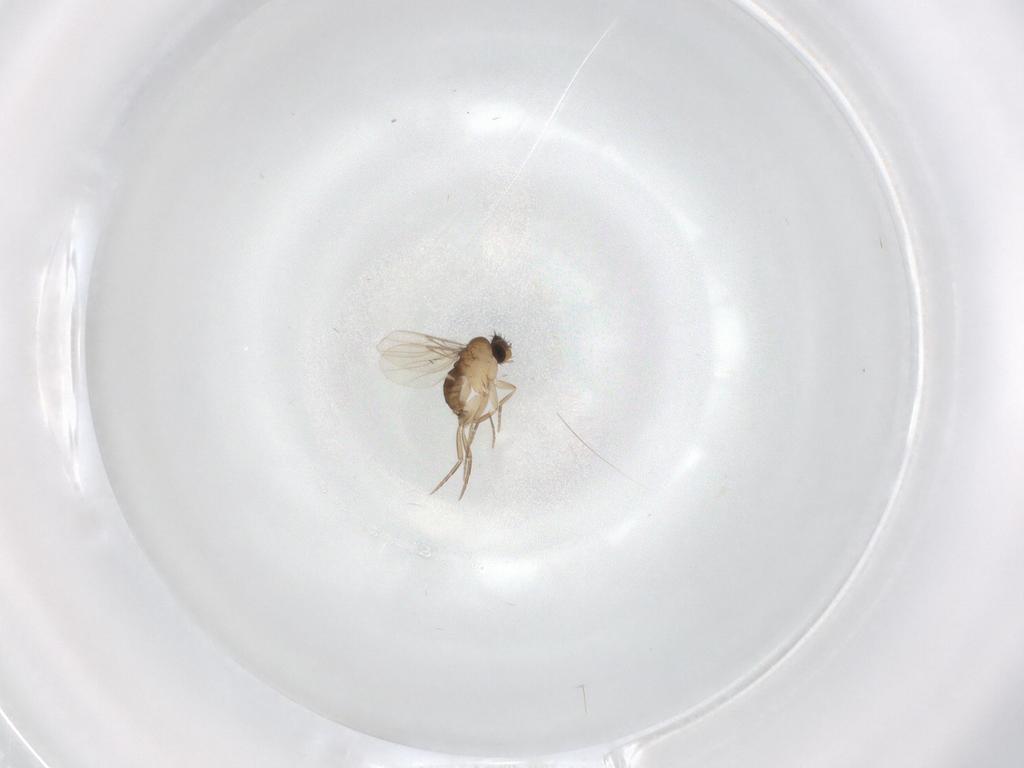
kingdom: Animalia
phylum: Arthropoda
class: Insecta
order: Diptera
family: Phoridae
